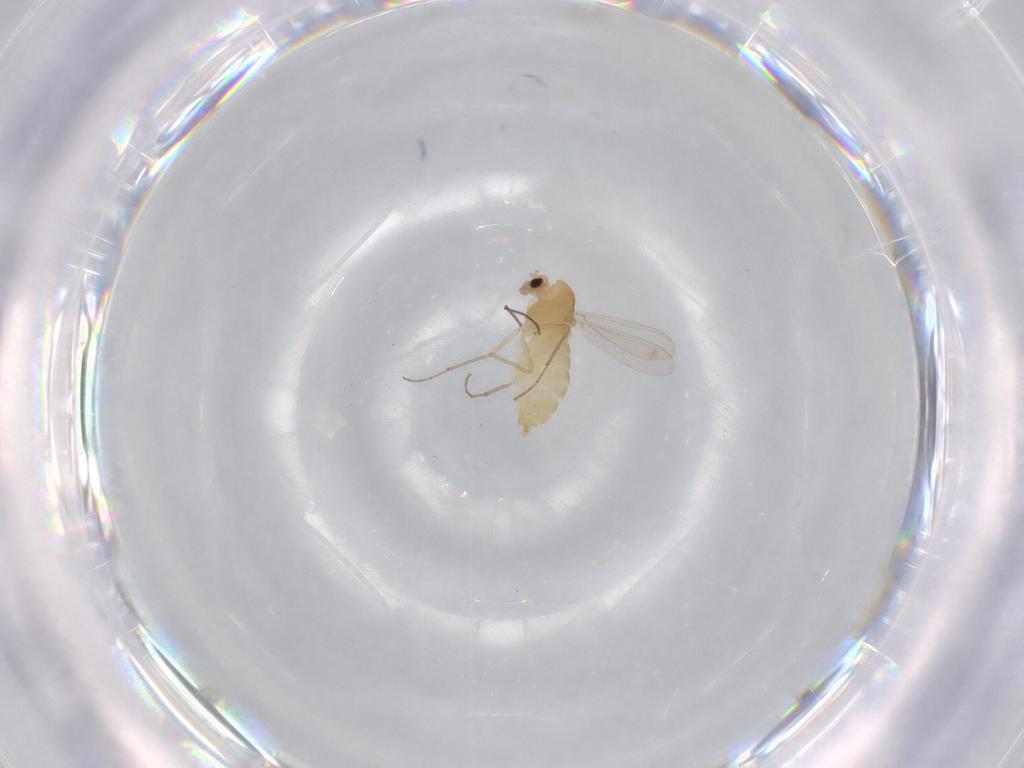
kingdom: Animalia
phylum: Arthropoda
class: Insecta
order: Diptera
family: Chironomidae
